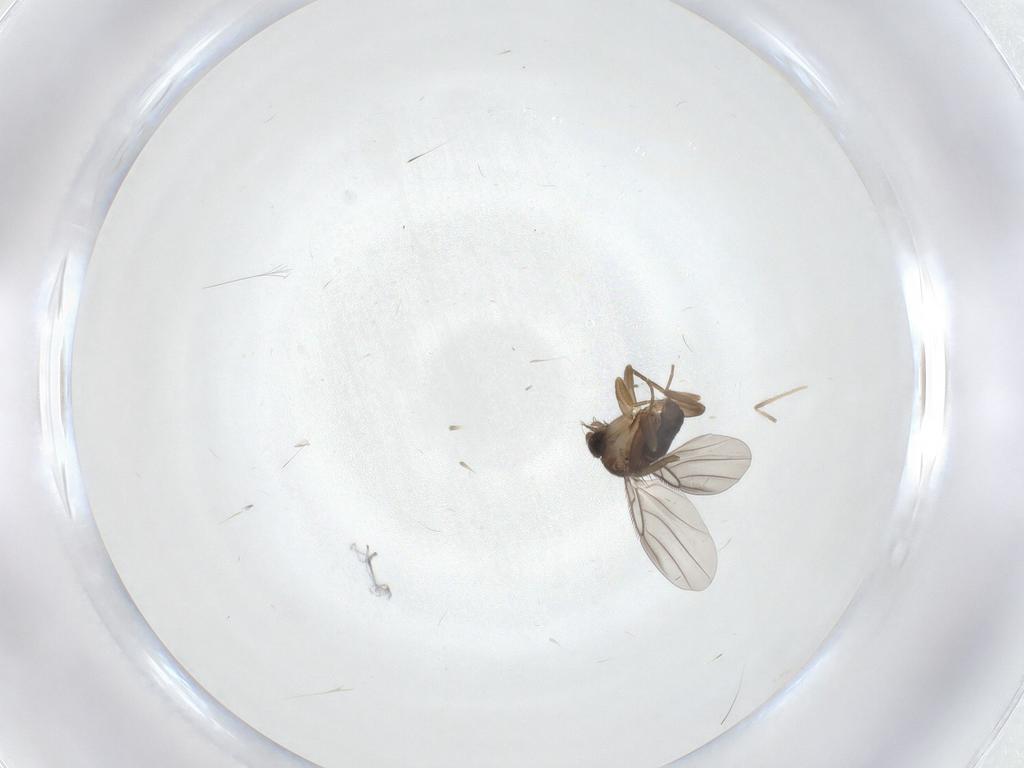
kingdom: Animalia
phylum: Arthropoda
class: Insecta
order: Diptera
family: Chironomidae
